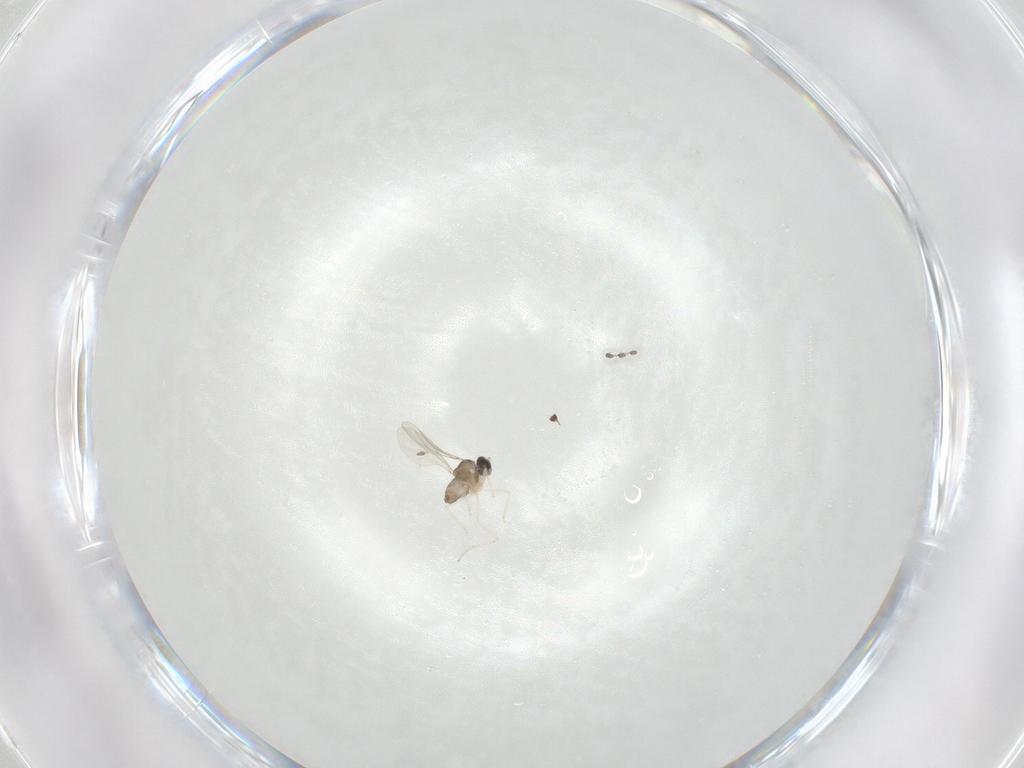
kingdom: Animalia
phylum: Arthropoda
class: Insecta
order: Diptera
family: Cecidomyiidae
